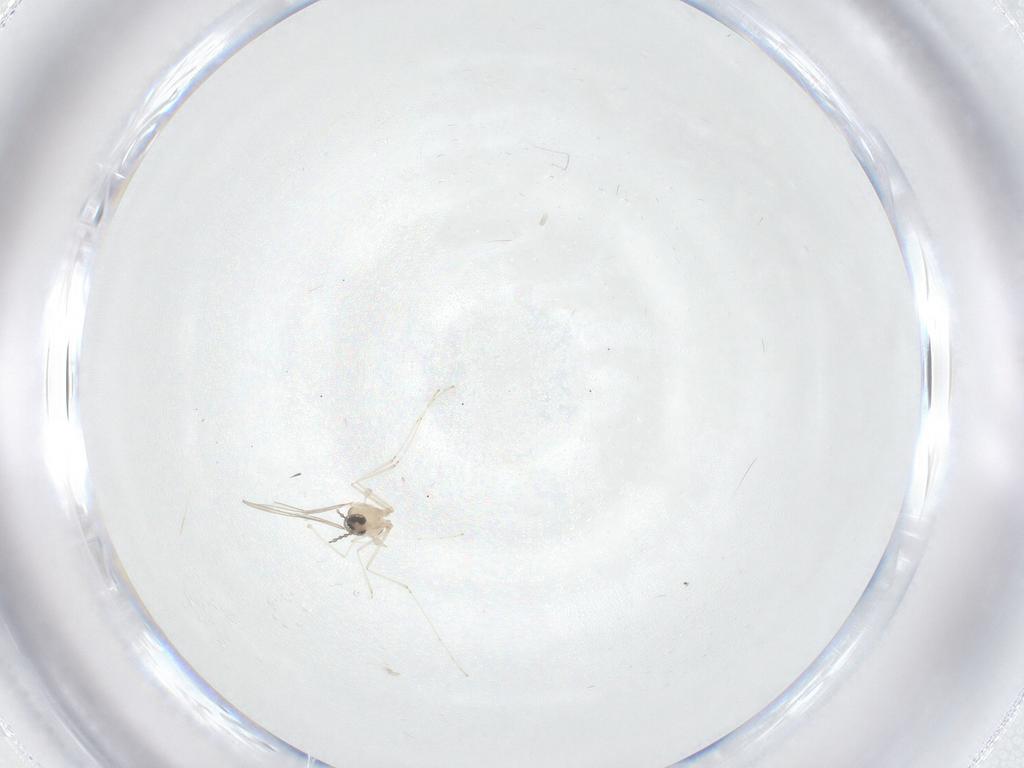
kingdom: Animalia
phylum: Arthropoda
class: Insecta
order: Diptera
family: Cecidomyiidae
